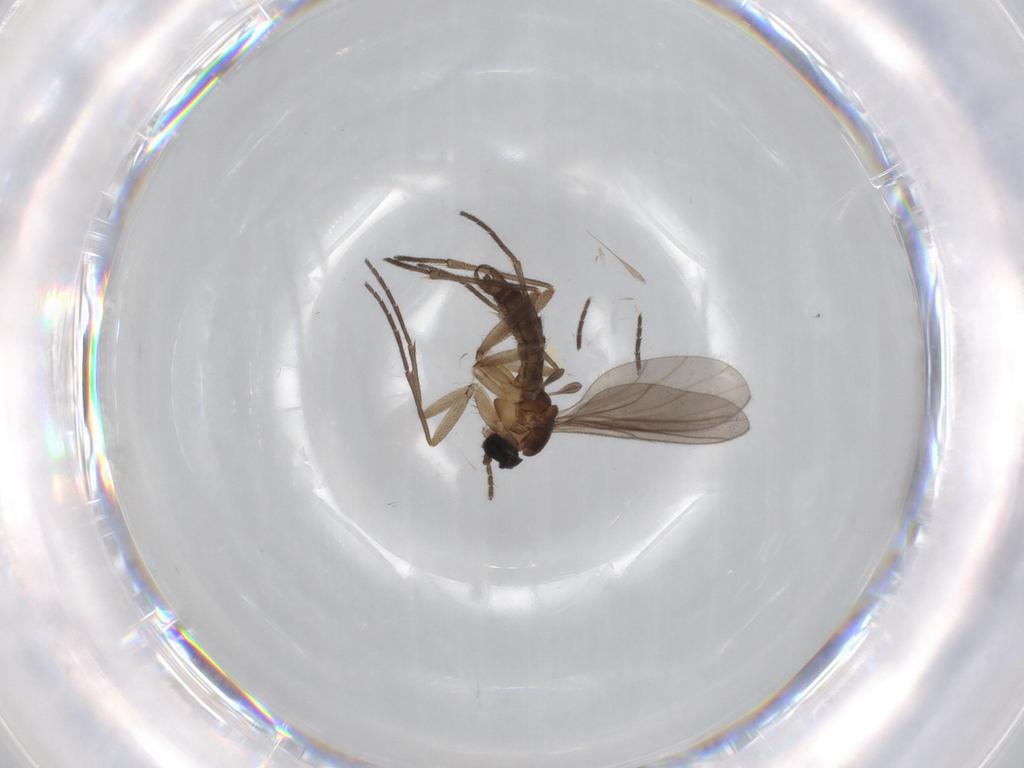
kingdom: Animalia
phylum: Arthropoda
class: Insecta
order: Diptera
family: Sciaridae
